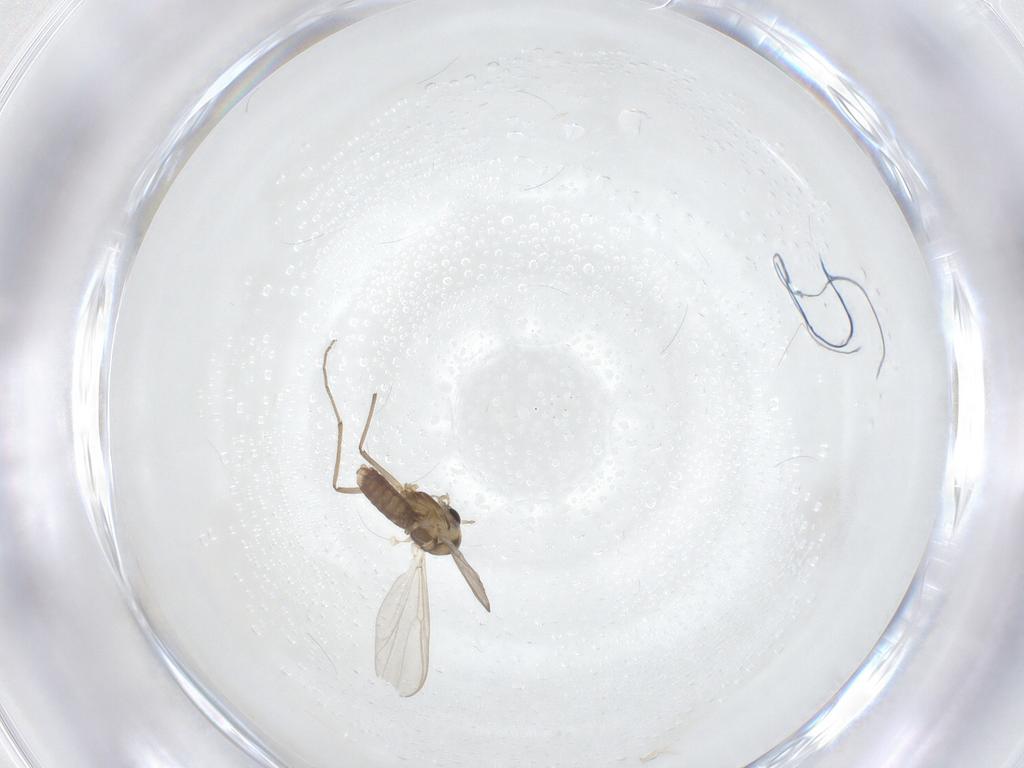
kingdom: Animalia
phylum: Arthropoda
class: Insecta
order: Diptera
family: Chironomidae
